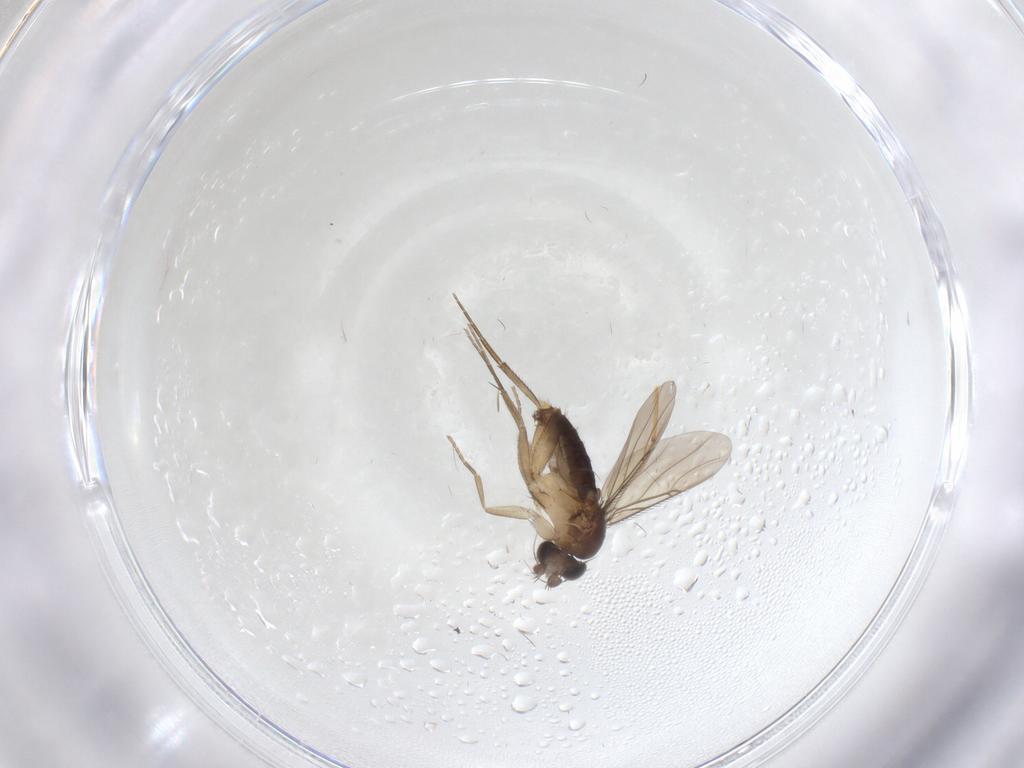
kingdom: Animalia
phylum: Arthropoda
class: Insecta
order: Diptera
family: Phoridae
